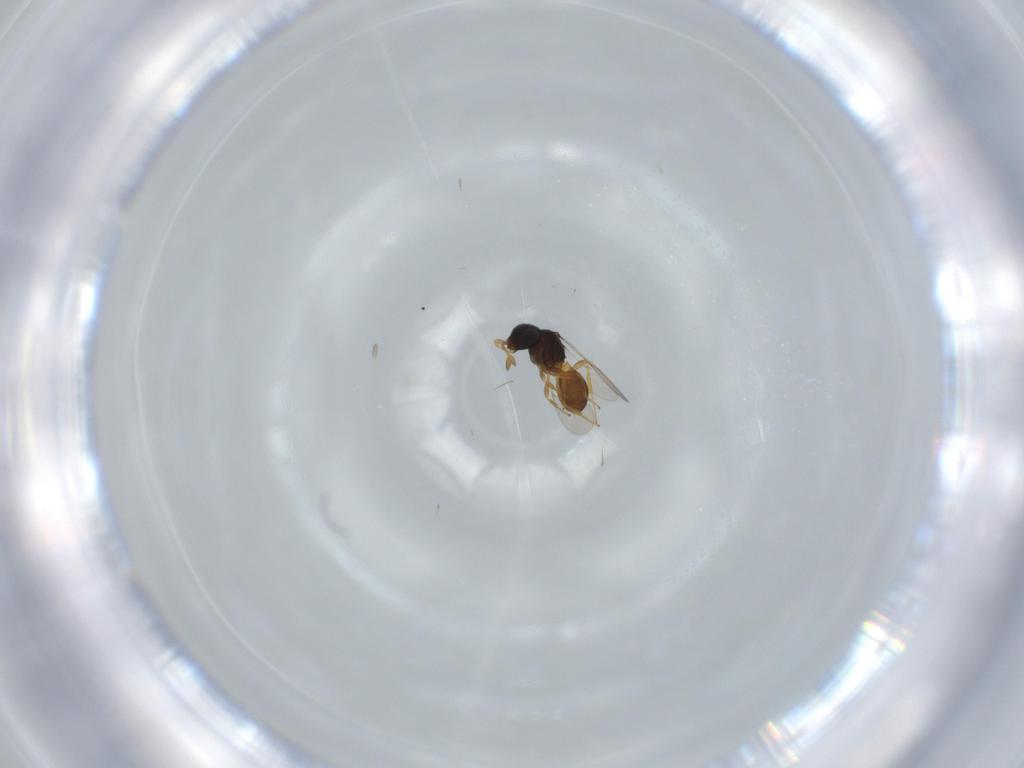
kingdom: Animalia
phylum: Arthropoda
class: Insecta
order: Hymenoptera
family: Scelionidae
